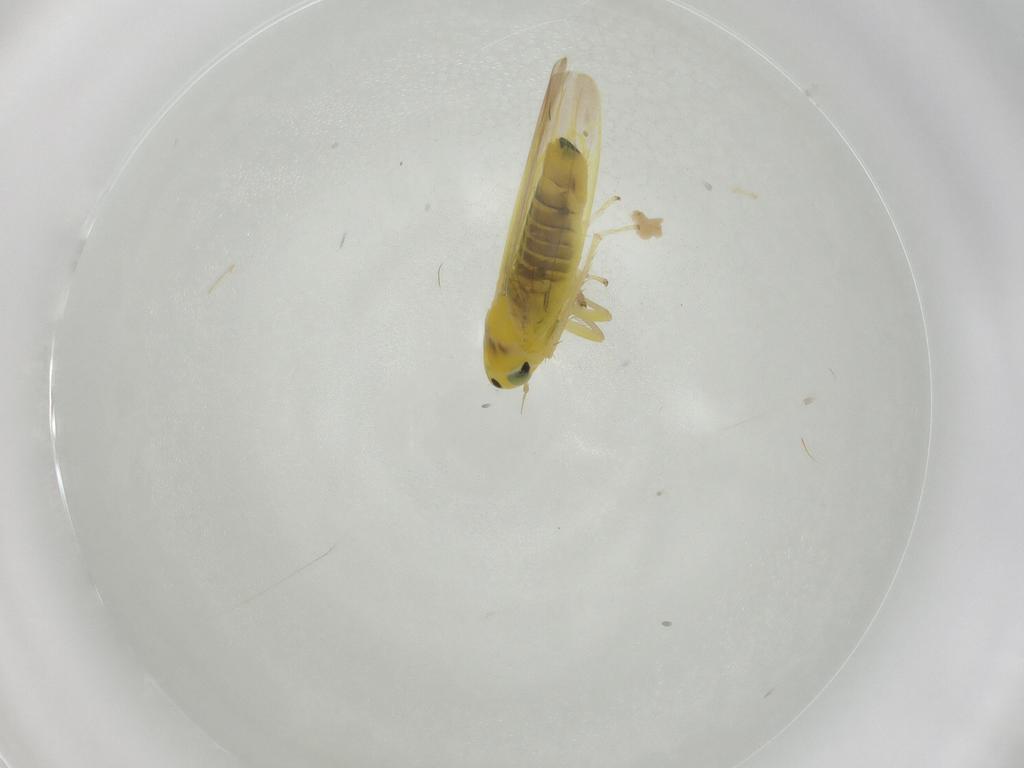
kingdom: Animalia
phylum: Arthropoda
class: Insecta
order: Hemiptera
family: Cicadellidae
